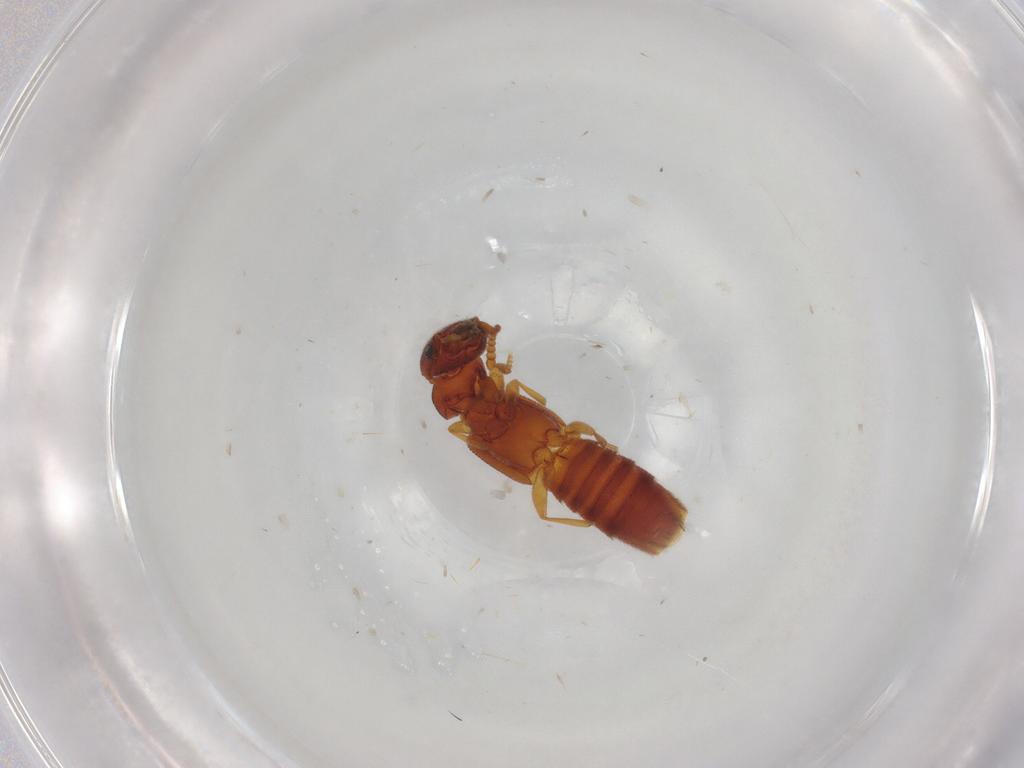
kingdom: Animalia
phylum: Arthropoda
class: Insecta
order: Coleoptera
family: Staphylinidae
